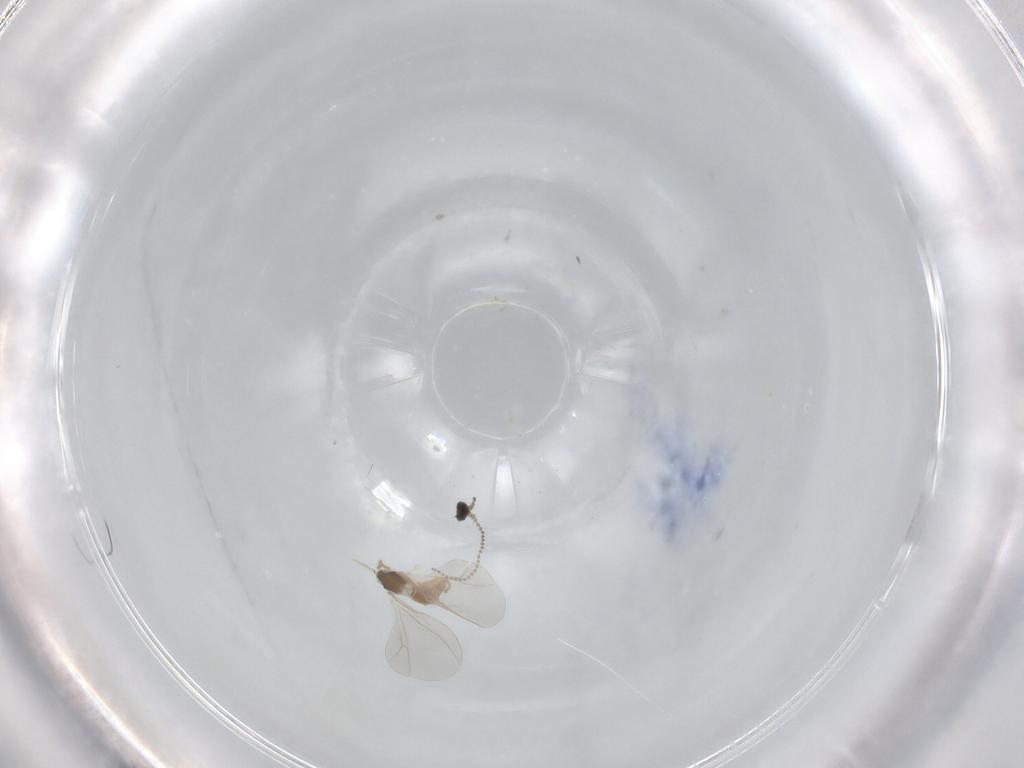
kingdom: Animalia
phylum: Arthropoda
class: Insecta
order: Diptera
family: Cecidomyiidae
